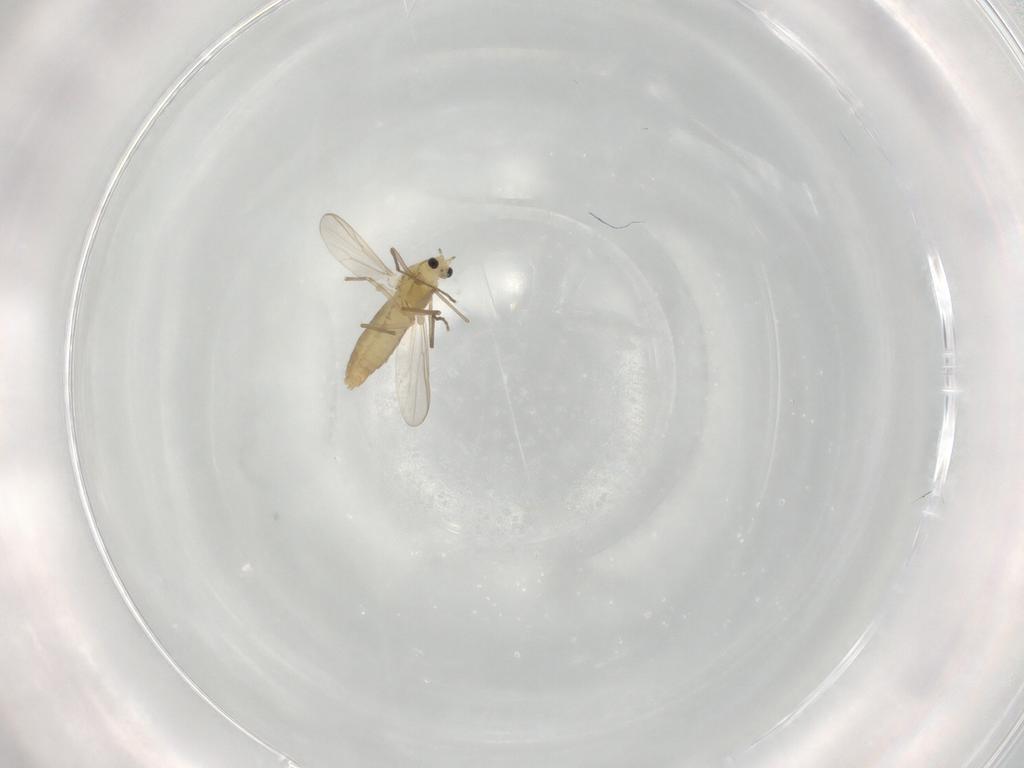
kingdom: Animalia
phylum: Arthropoda
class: Insecta
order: Diptera
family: Chironomidae
